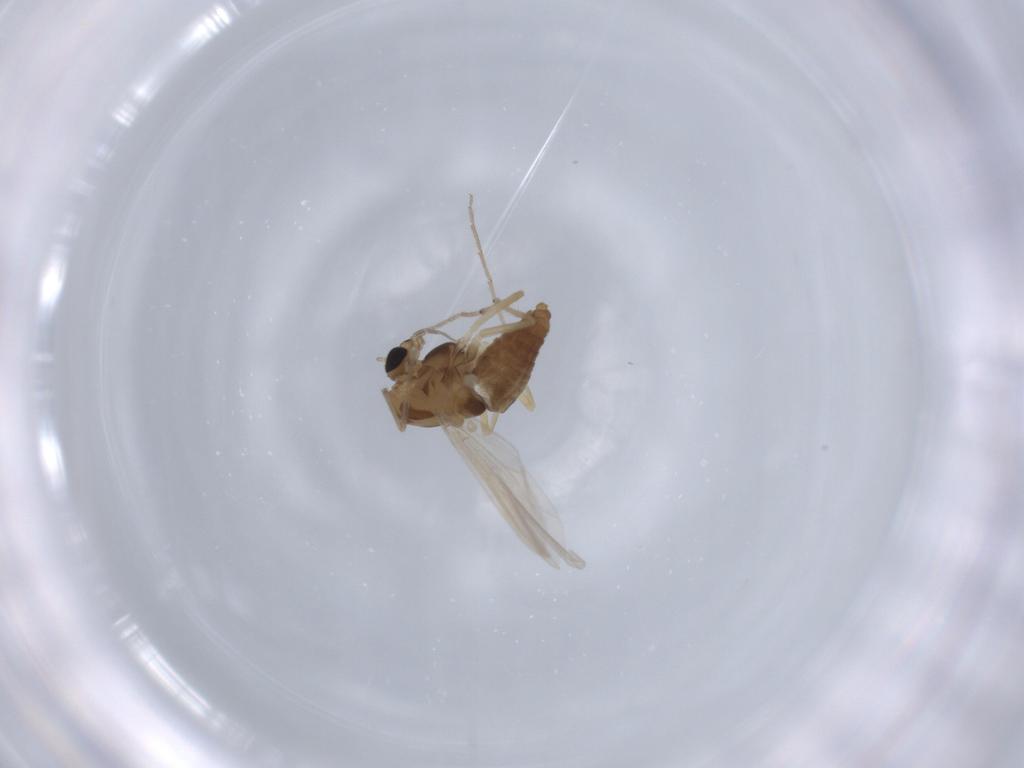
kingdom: Animalia
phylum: Arthropoda
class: Insecta
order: Diptera
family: Chironomidae
